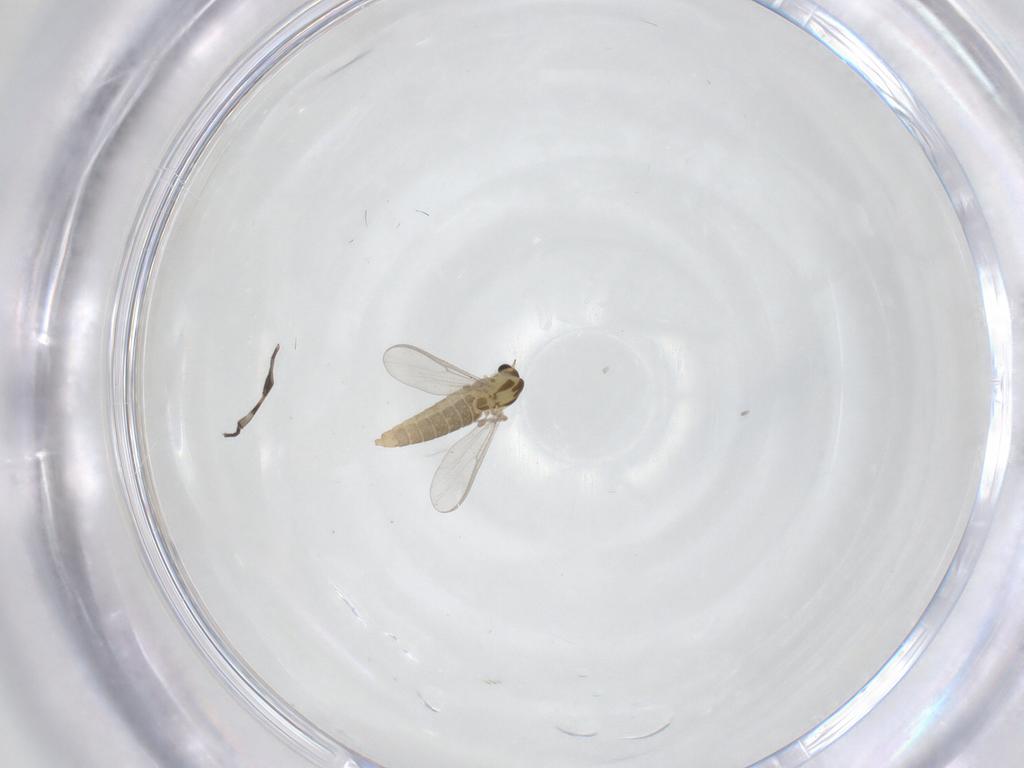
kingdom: Animalia
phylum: Arthropoda
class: Insecta
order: Diptera
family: Scatopsidae
